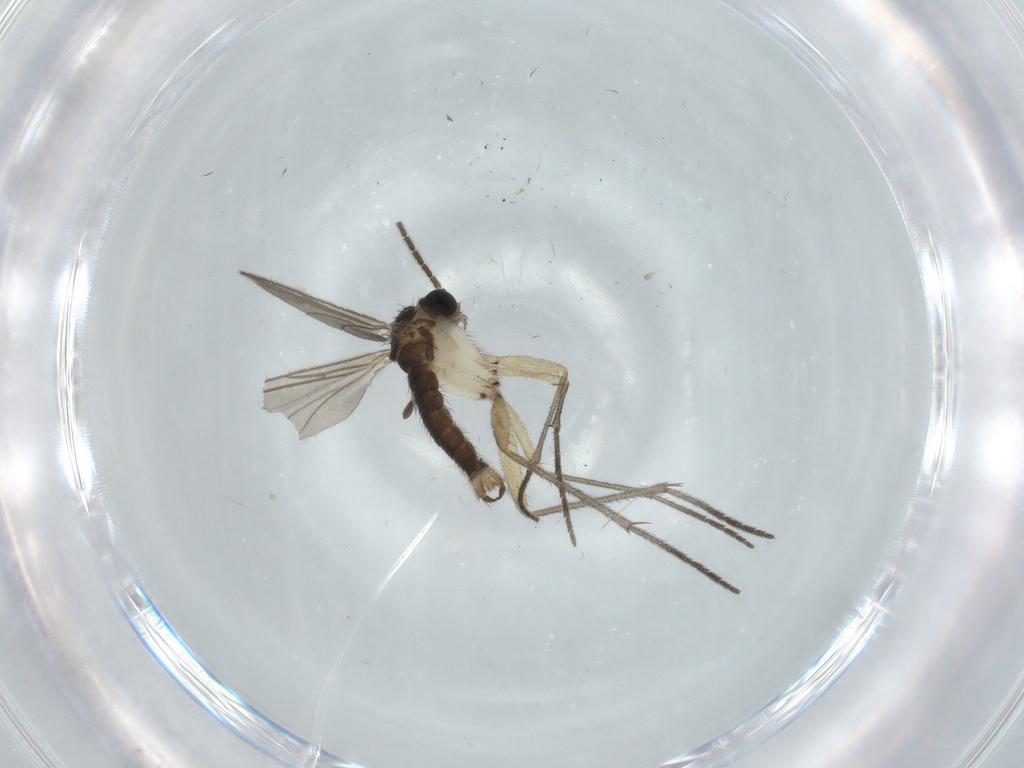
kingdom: Animalia
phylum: Arthropoda
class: Insecta
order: Diptera
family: Sciaridae
